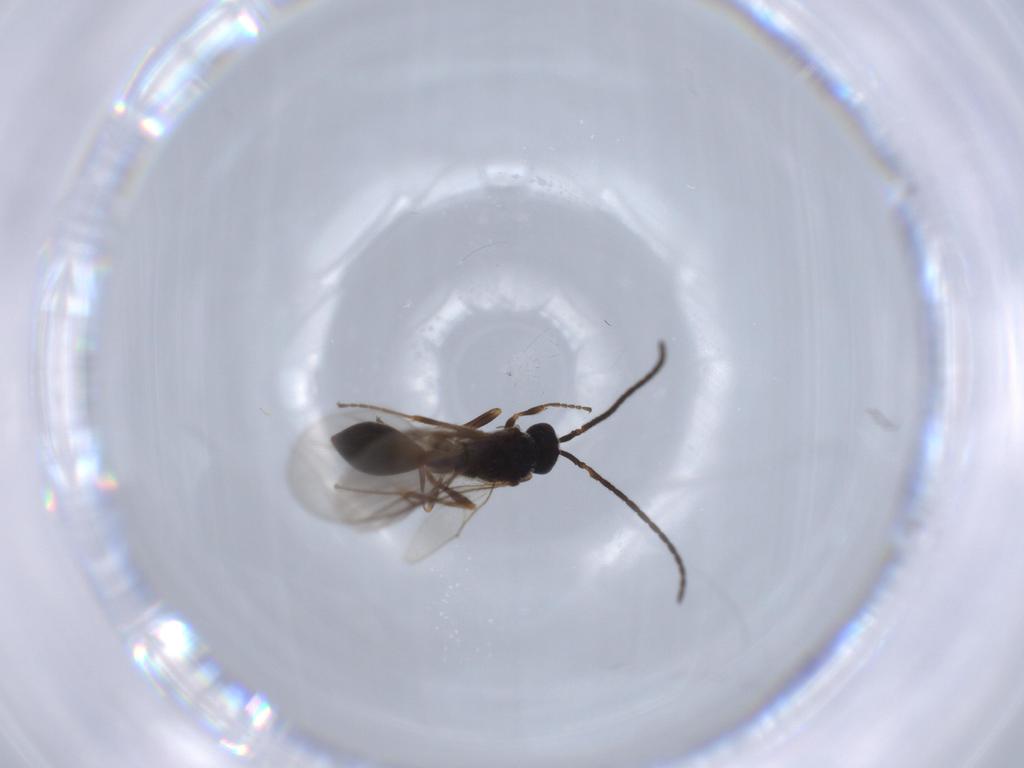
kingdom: Animalia
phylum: Arthropoda
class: Insecta
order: Hymenoptera
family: Diapriidae
